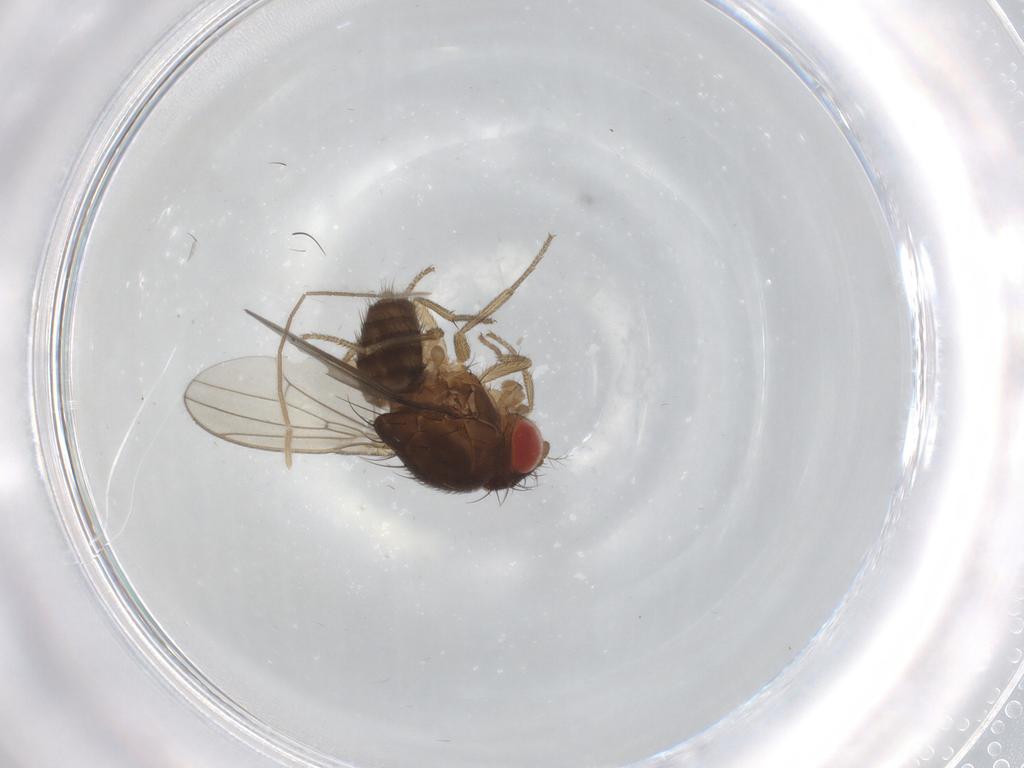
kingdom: Animalia
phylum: Arthropoda
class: Insecta
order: Diptera
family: Drosophilidae
